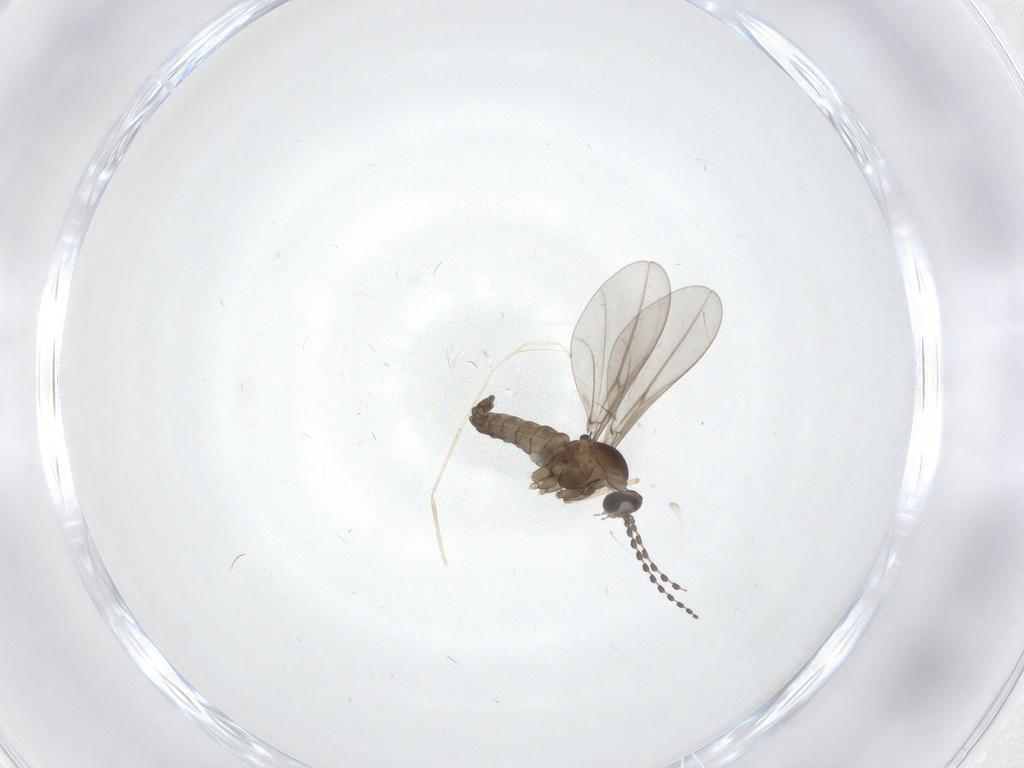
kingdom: Animalia
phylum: Arthropoda
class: Insecta
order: Diptera
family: Cecidomyiidae
